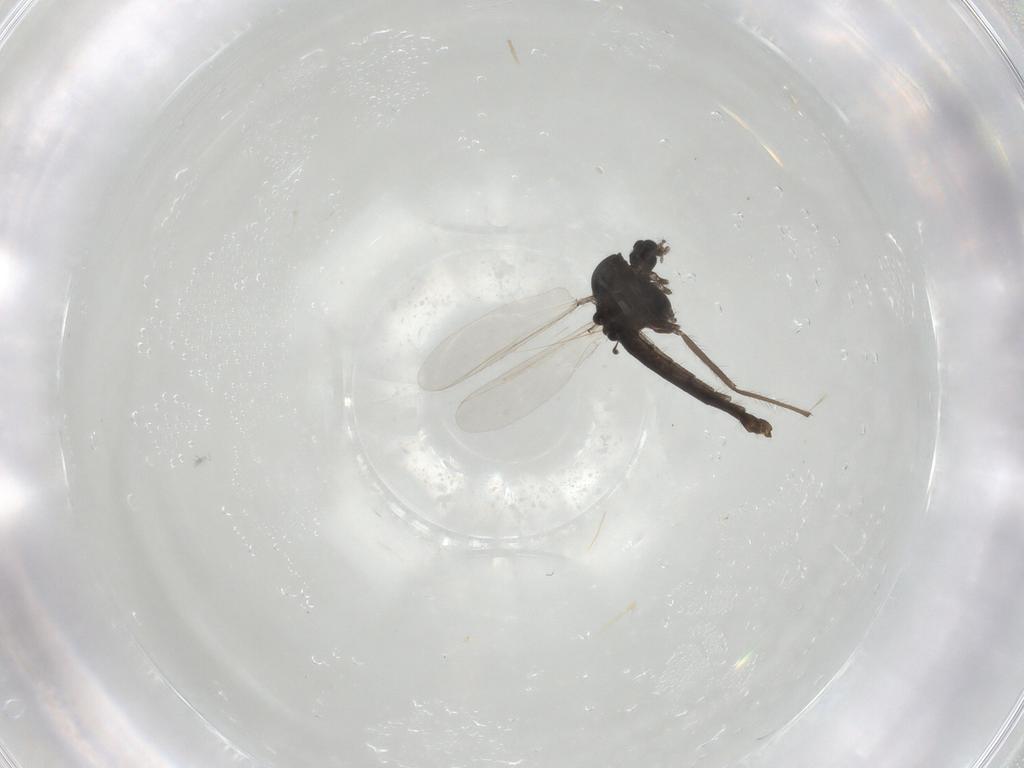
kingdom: Animalia
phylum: Arthropoda
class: Insecta
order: Diptera
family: Chironomidae
